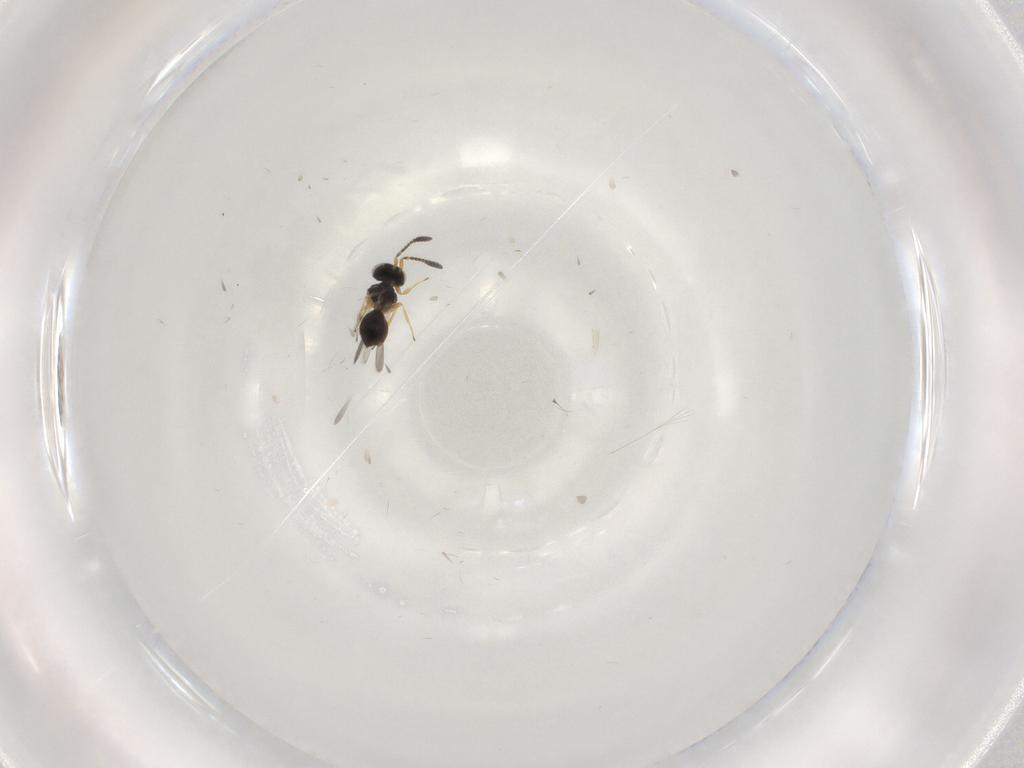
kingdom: Animalia
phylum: Arthropoda
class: Insecta
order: Hymenoptera
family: Scelionidae
